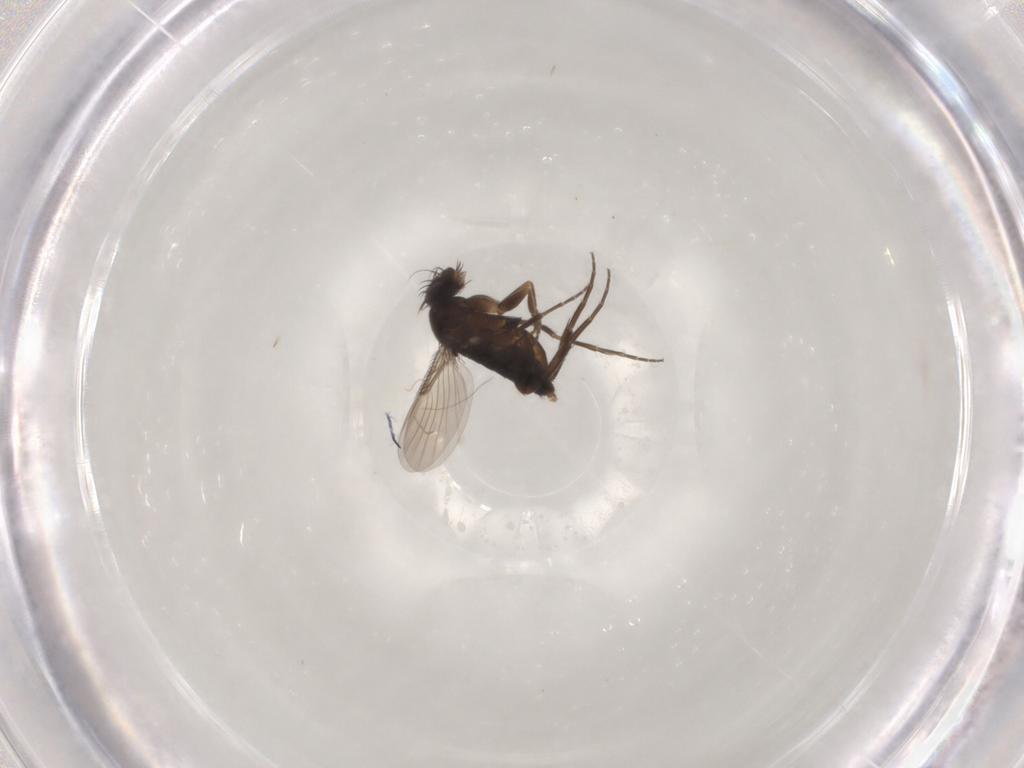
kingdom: Animalia
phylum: Arthropoda
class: Insecta
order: Diptera
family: Phoridae
